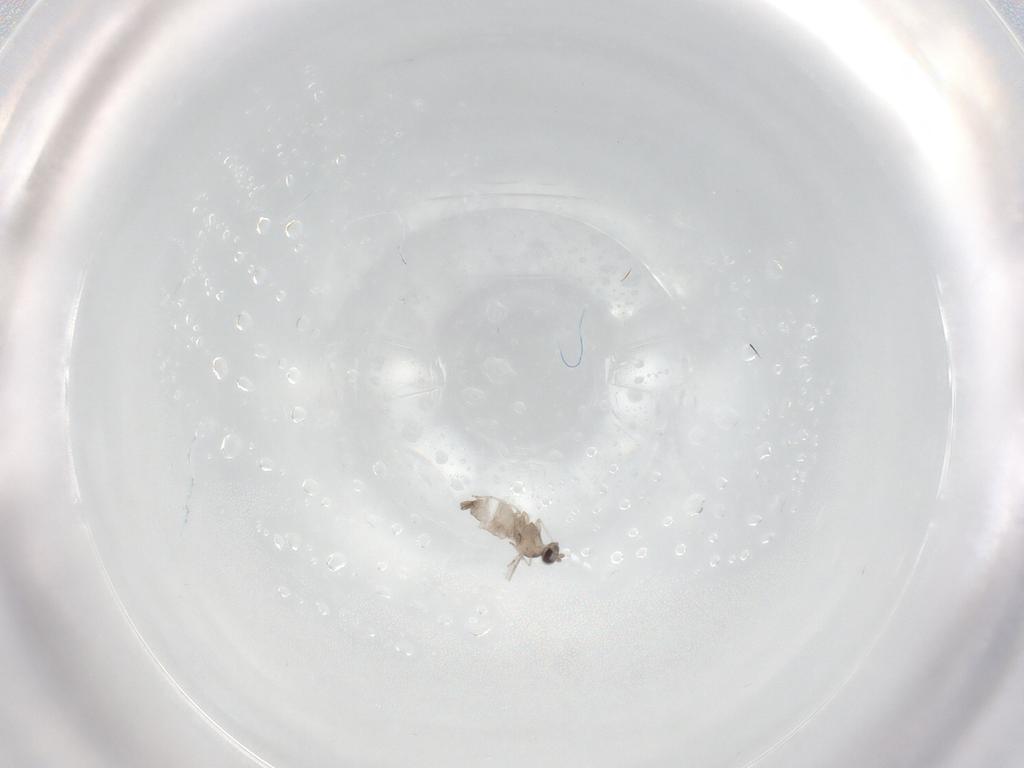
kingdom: Animalia
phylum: Arthropoda
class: Insecta
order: Diptera
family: Cecidomyiidae
